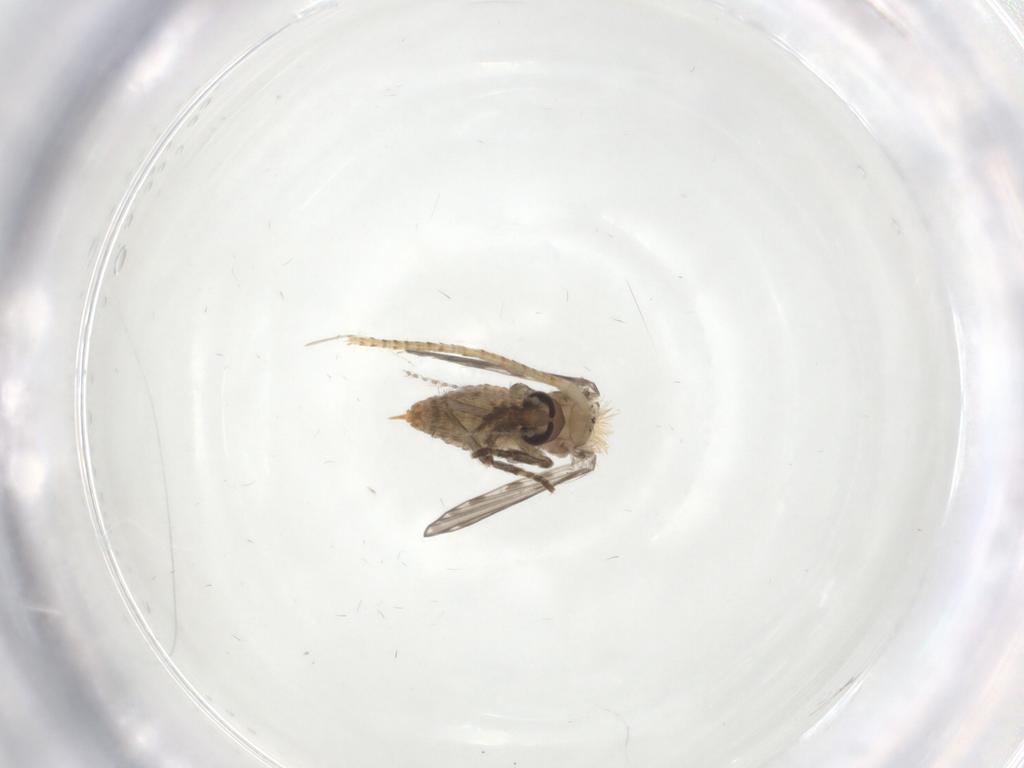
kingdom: Animalia
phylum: Arthropoda
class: Insecta
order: Diptera
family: Psychodidae
